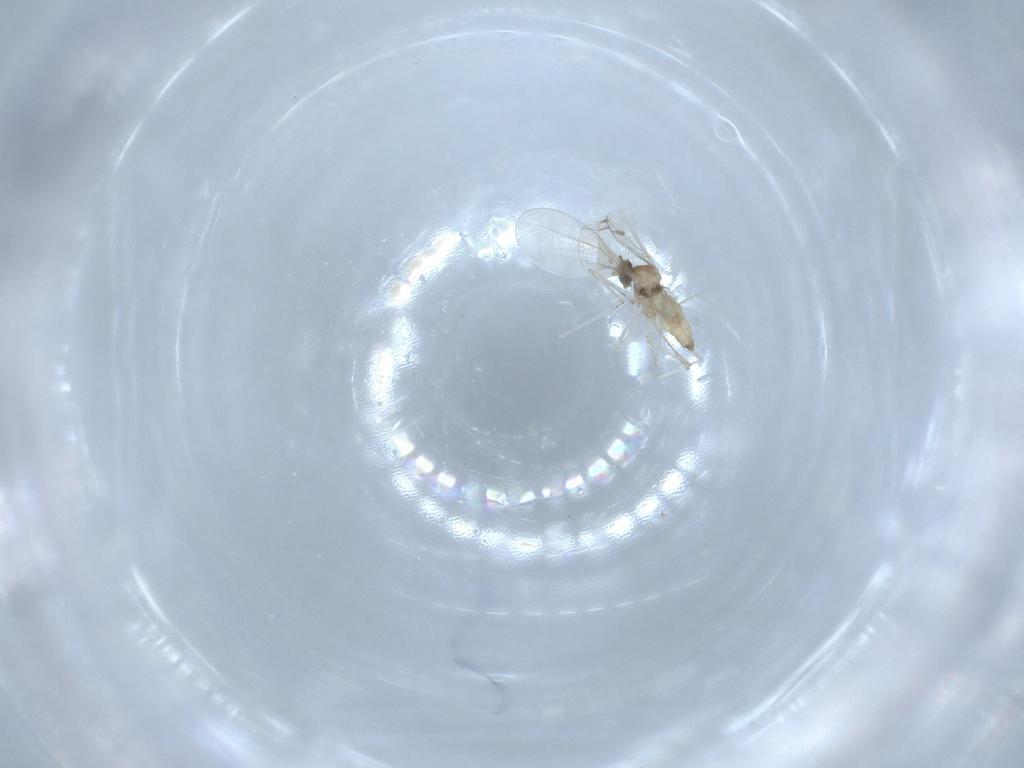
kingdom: Animalia
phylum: Arthropoda
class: Insecta
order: Diptera
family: Cecidomyiidae
